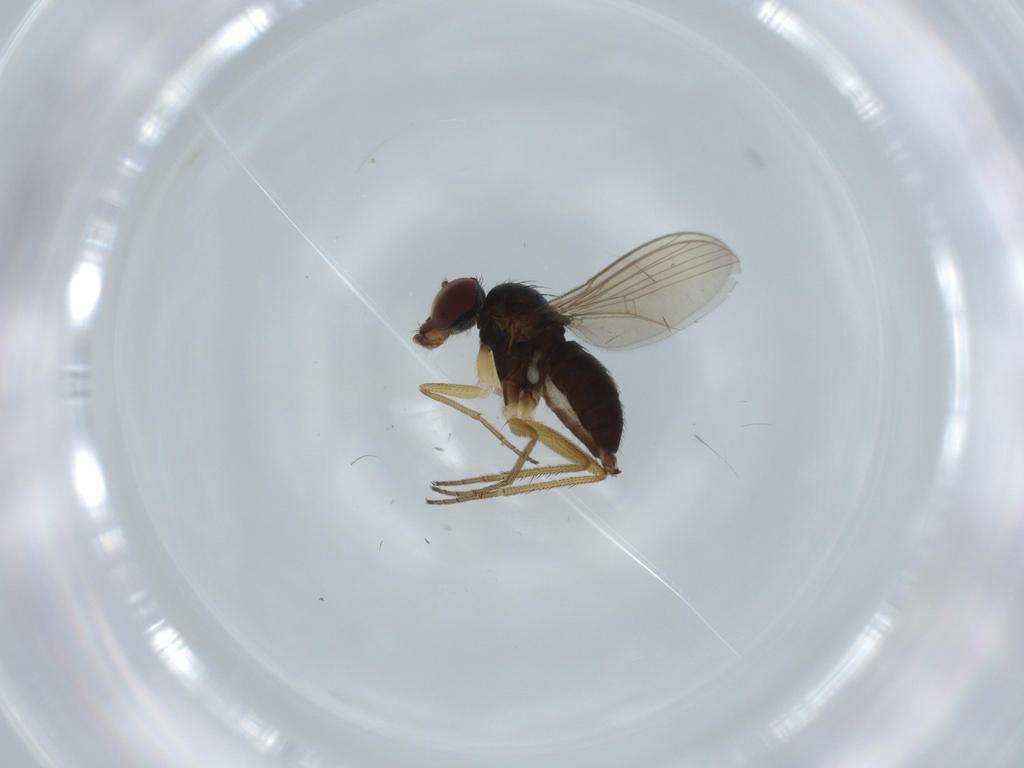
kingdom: Animalia
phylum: Arthropoda
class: Insecta
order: Diptera
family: Dolichopodidae
